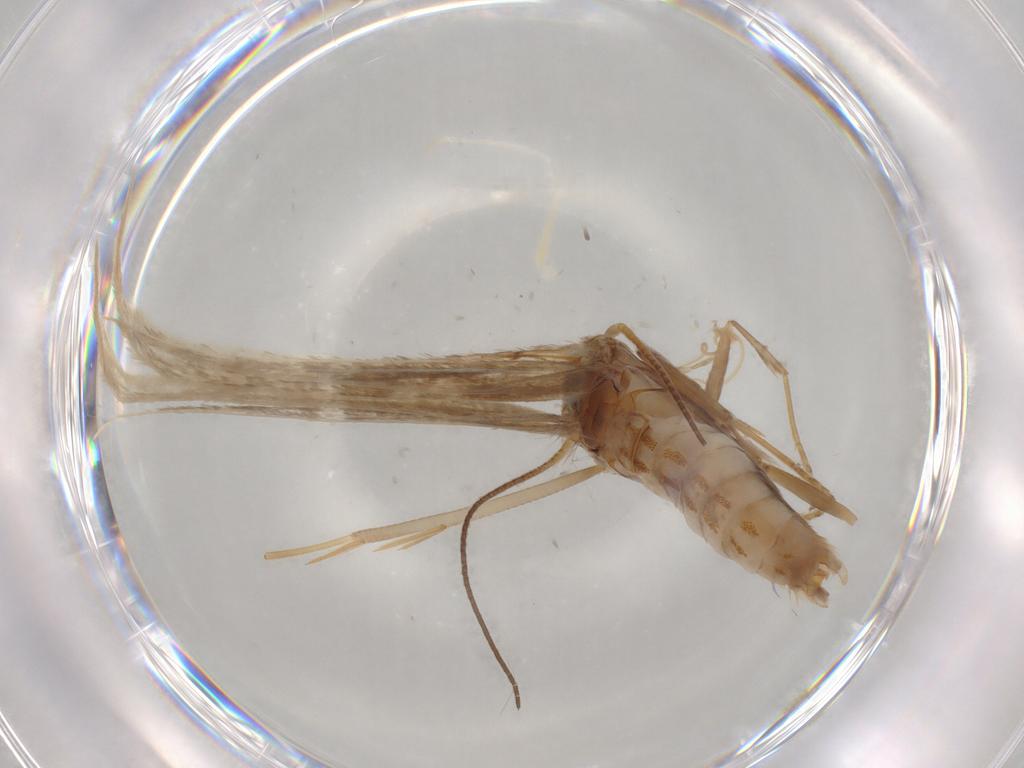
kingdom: Animalia
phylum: Arthropoda
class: Insecta
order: Lepidoptera
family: Coleophoridae
